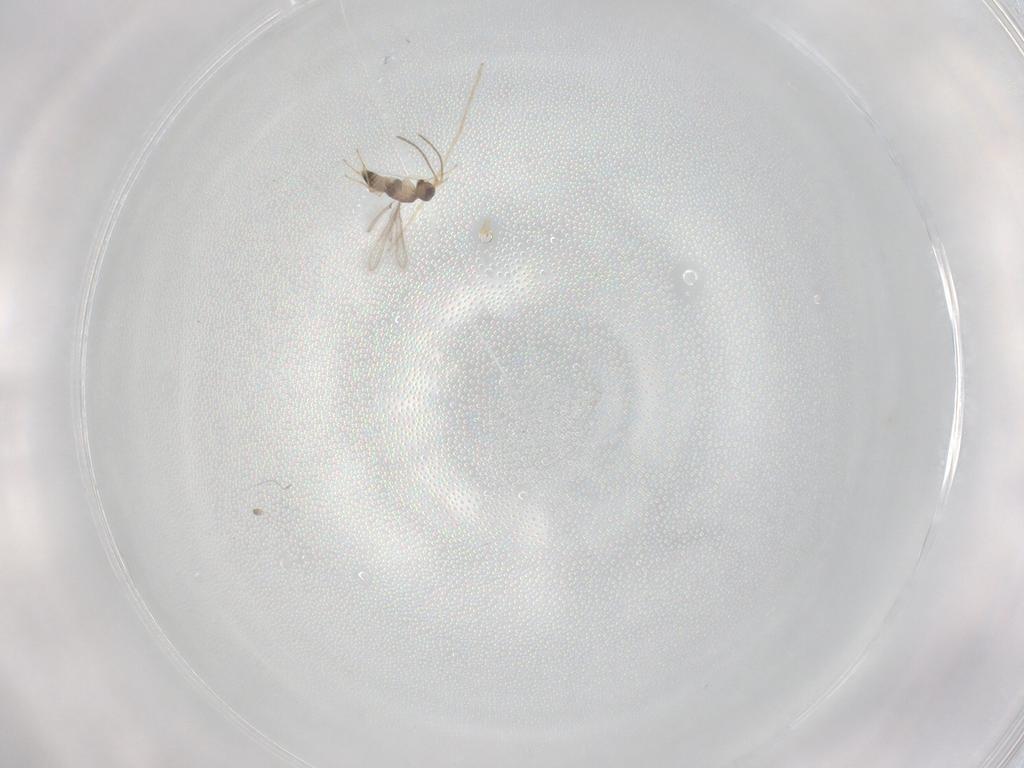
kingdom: Animalia
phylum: Arthropoda
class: Insecta
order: Hymenoptera
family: Mymaridae
